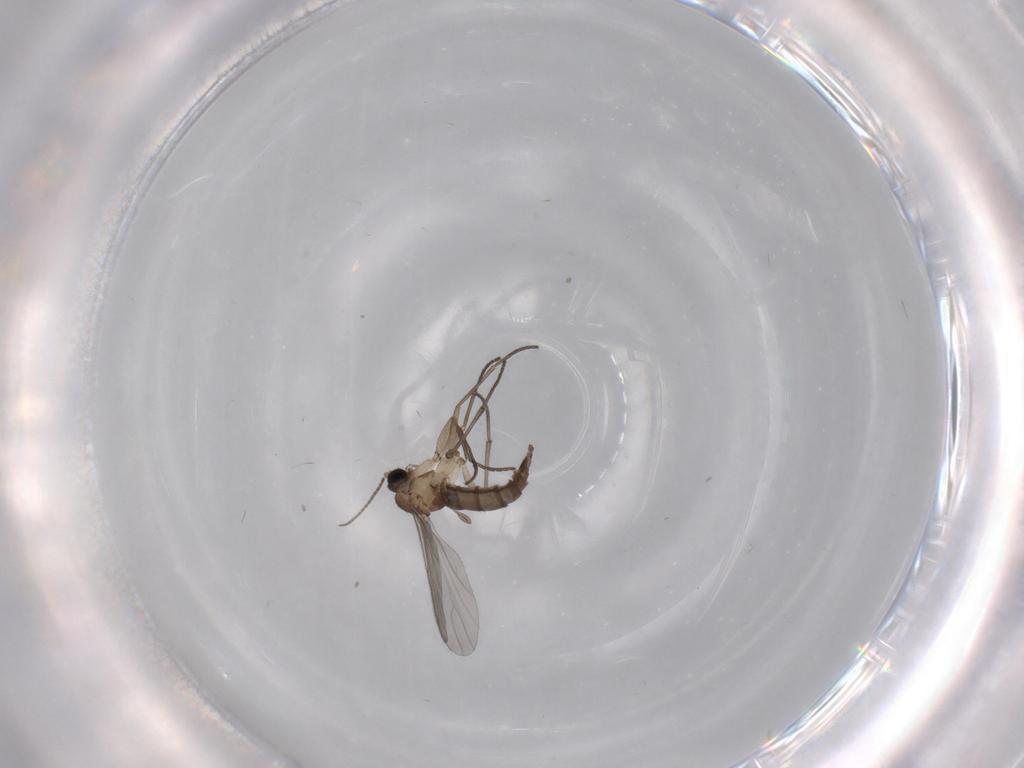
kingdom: Animalia
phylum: Arthropoda
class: Insecta
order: Diptera
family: Sciaridae
